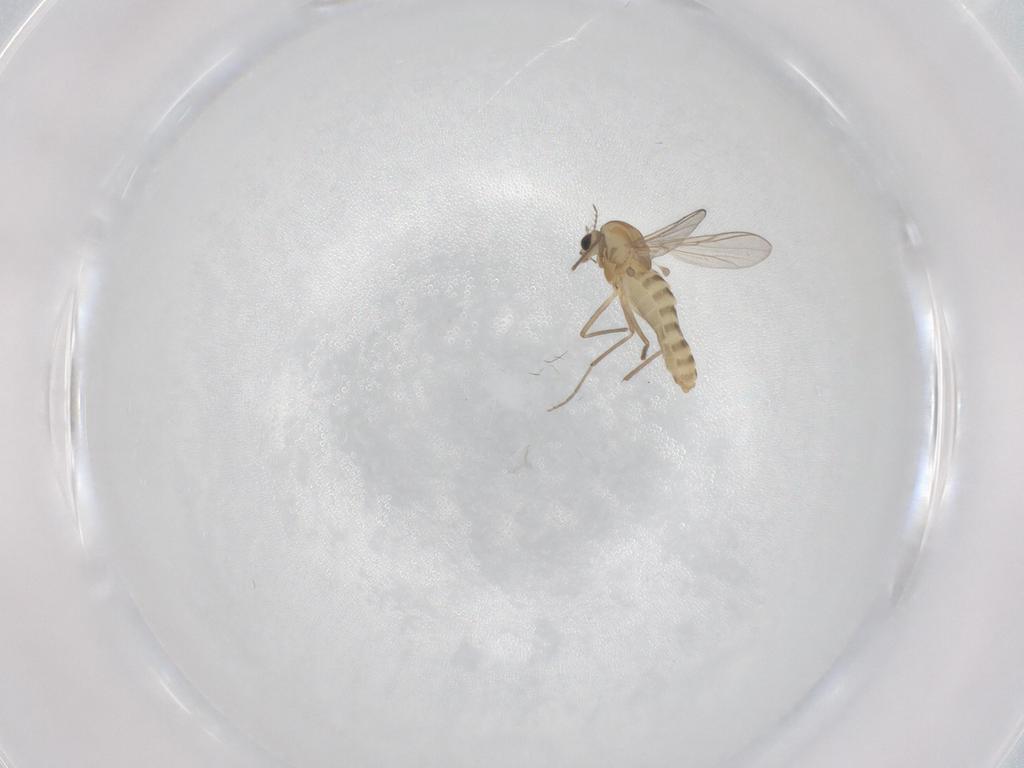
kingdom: Animalia
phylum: Arthropoda
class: Insecta
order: Diptera
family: Chironomidae
